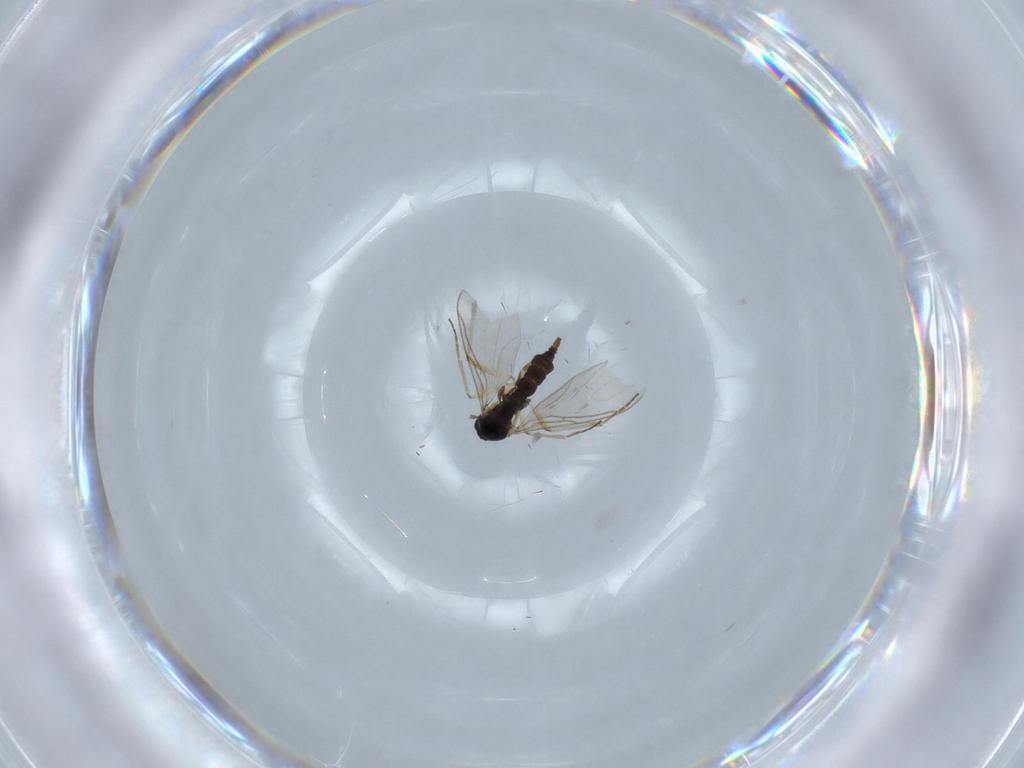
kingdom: Animalia
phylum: Arthropoda
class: Insecta
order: Diptera
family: Sciaridae
